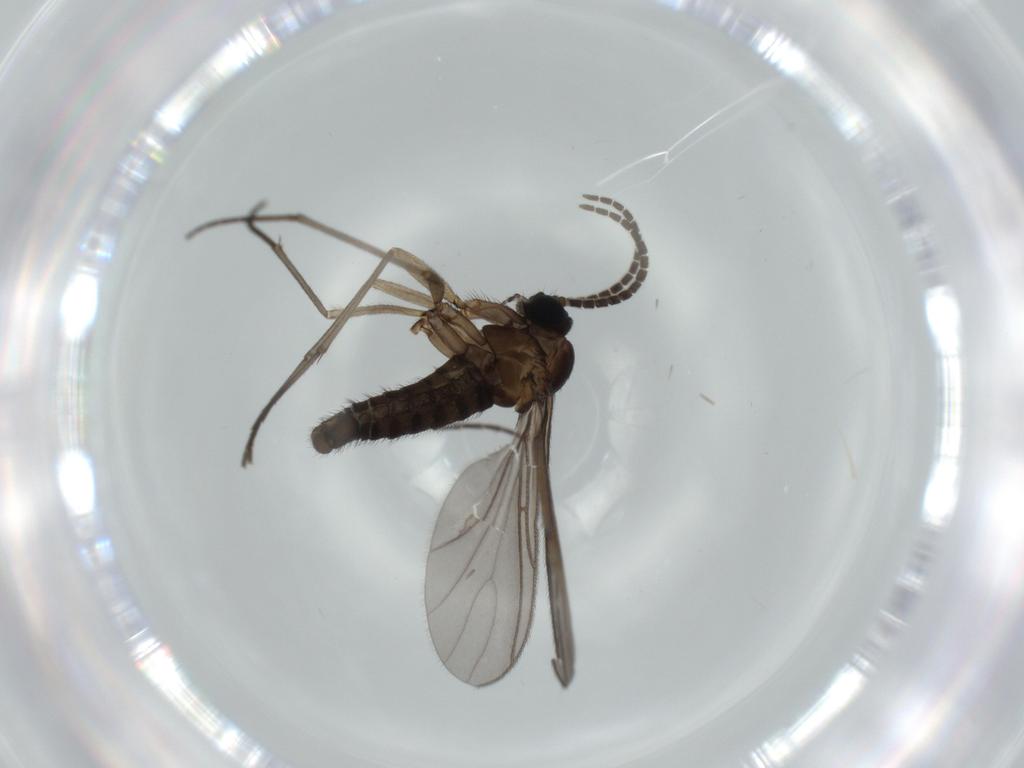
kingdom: Animalia
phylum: Arthropoda
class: Insecta
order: Diptera
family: Sciaridae
